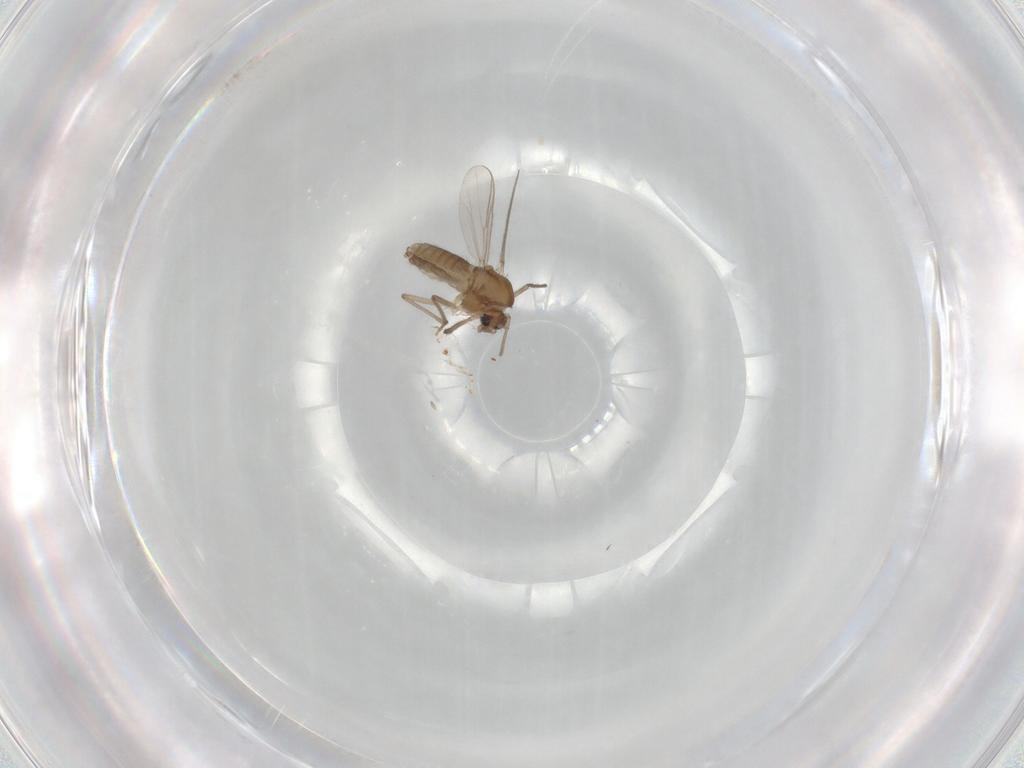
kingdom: Animalia
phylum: Arthropoda
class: Insecta
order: Diptera
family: Chironomidae
